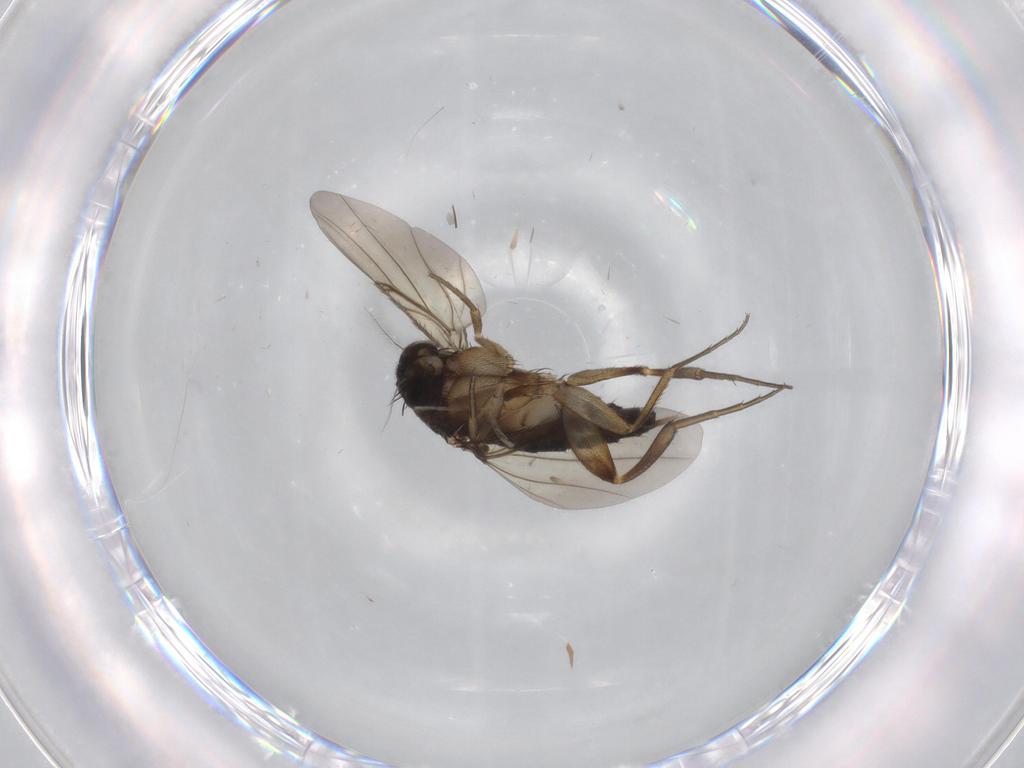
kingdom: Animalia
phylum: Arthropoda
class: Insecta
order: Diptera
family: Phoridae
